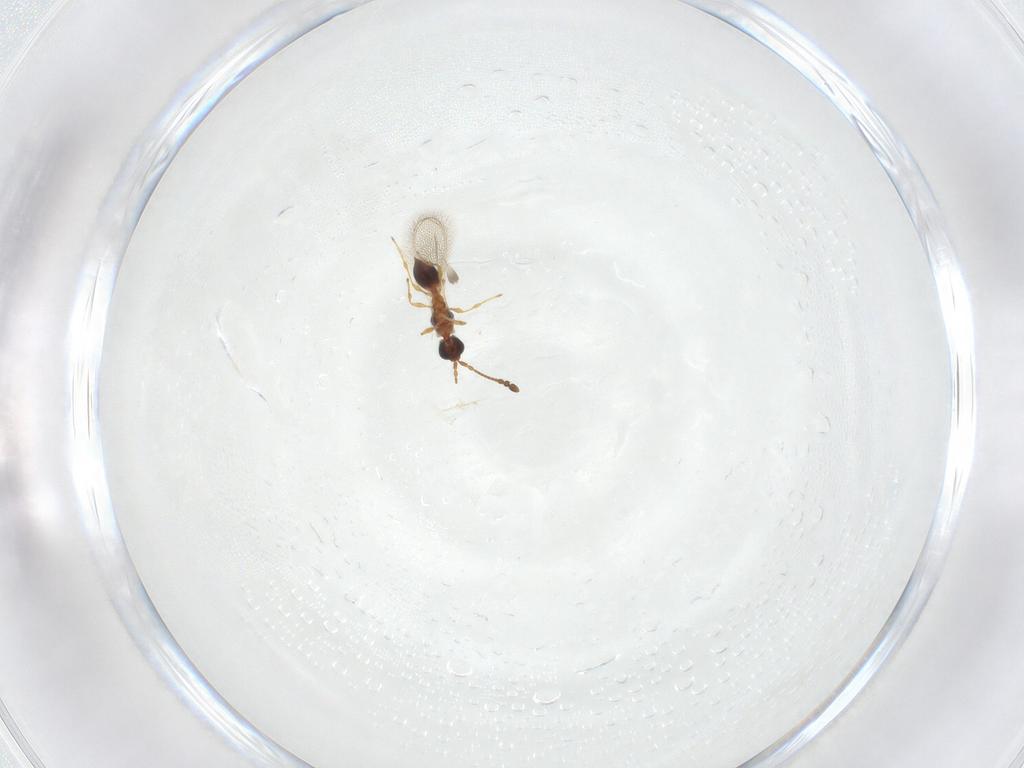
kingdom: Animalia
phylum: Arthropoda
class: Insecta
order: Hymenoptera
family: Diapriidae
